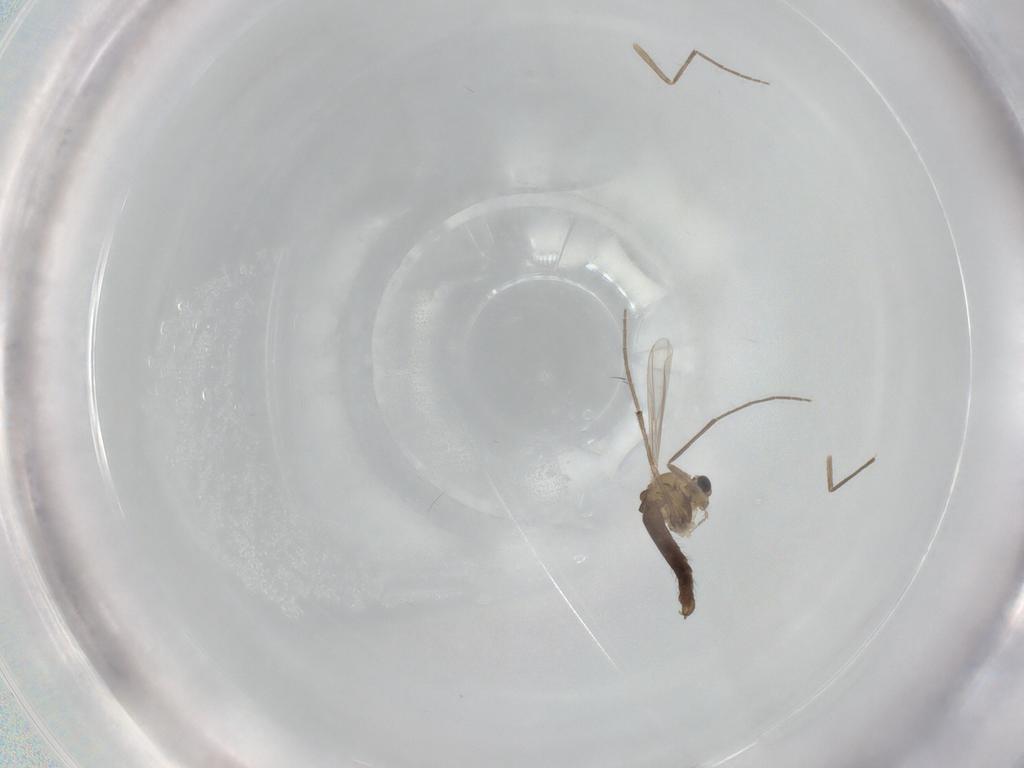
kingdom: Animalia
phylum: Arthropoda
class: Insecta
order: Diptera
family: Chironomidae
